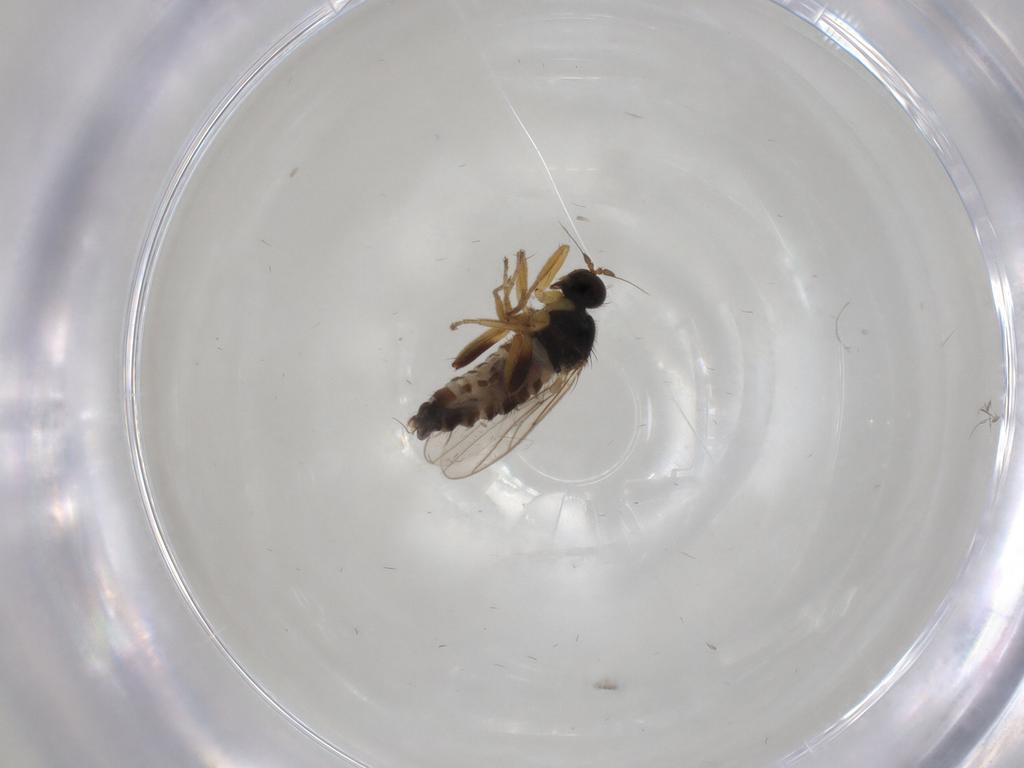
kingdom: Animalia
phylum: Arthropoda
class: Insecta
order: Diptera
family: Hybotidae
